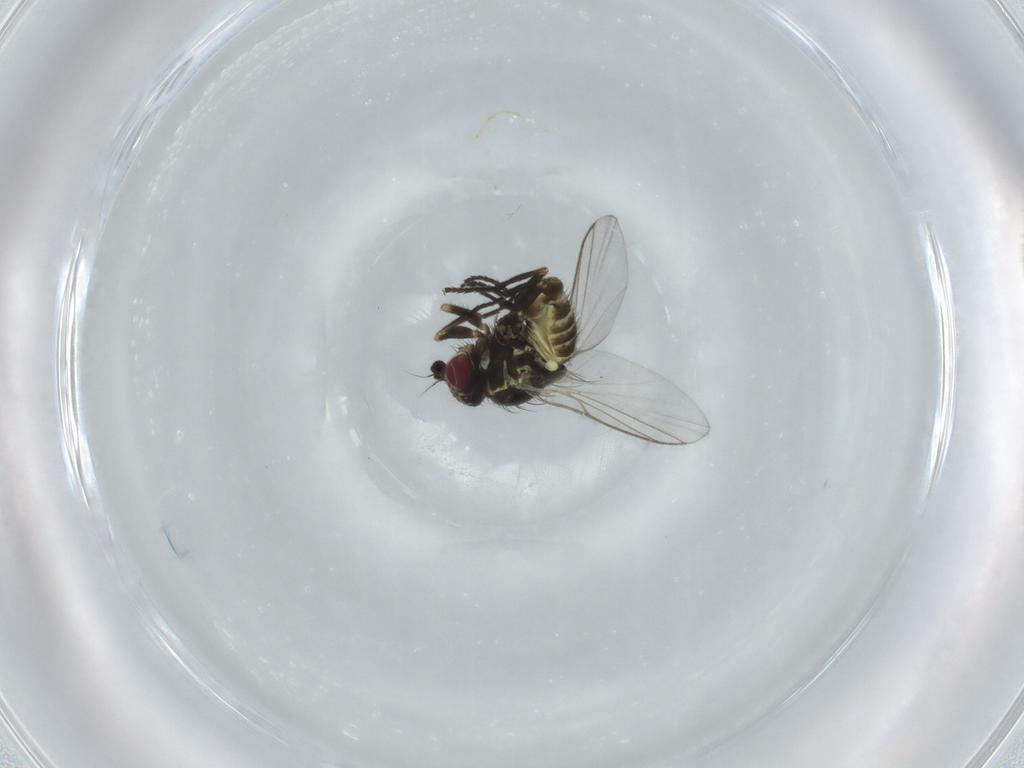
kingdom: Animalia
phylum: Arthropoda
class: Insecta
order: Diptera
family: Agromyzidae
